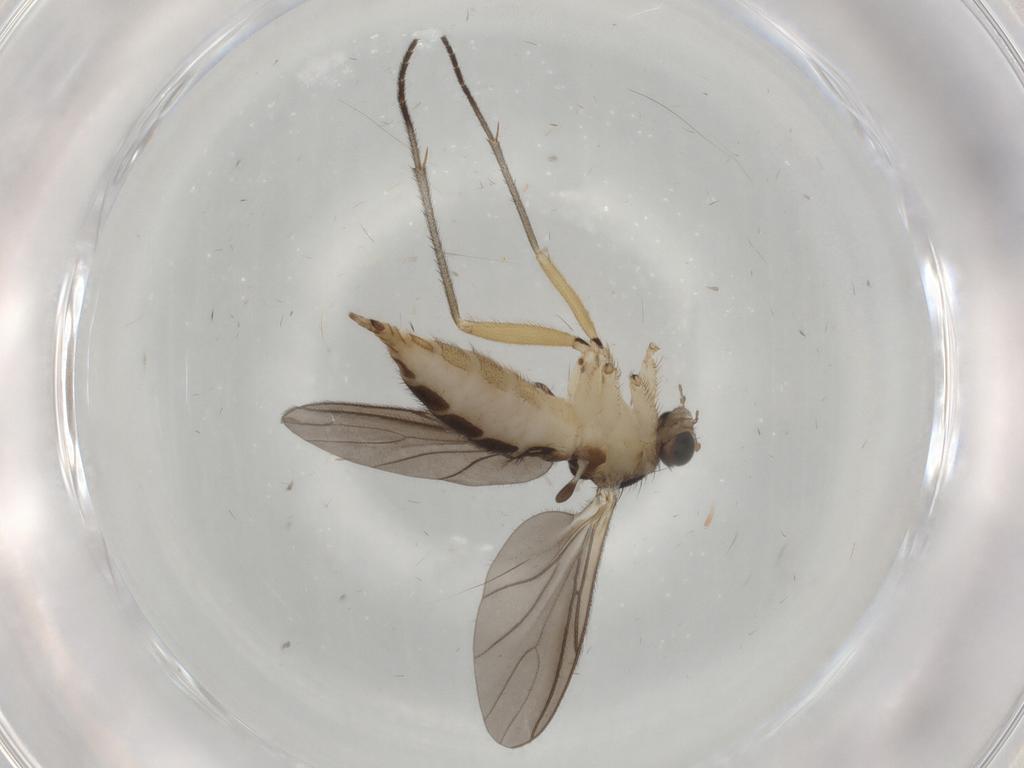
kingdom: Animalia
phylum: Arthropoda
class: Insecta
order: Diptera
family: Sciaridae
